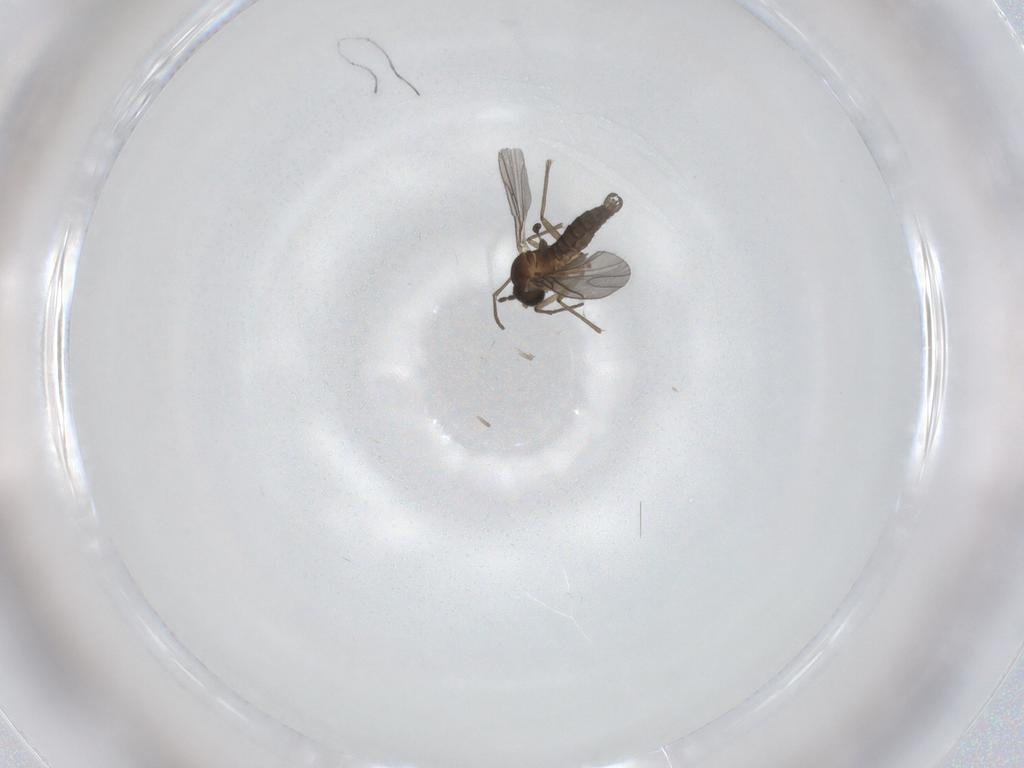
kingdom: Animalia
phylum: Arthropoda
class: Insecta
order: Diptera
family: Sciaridae
